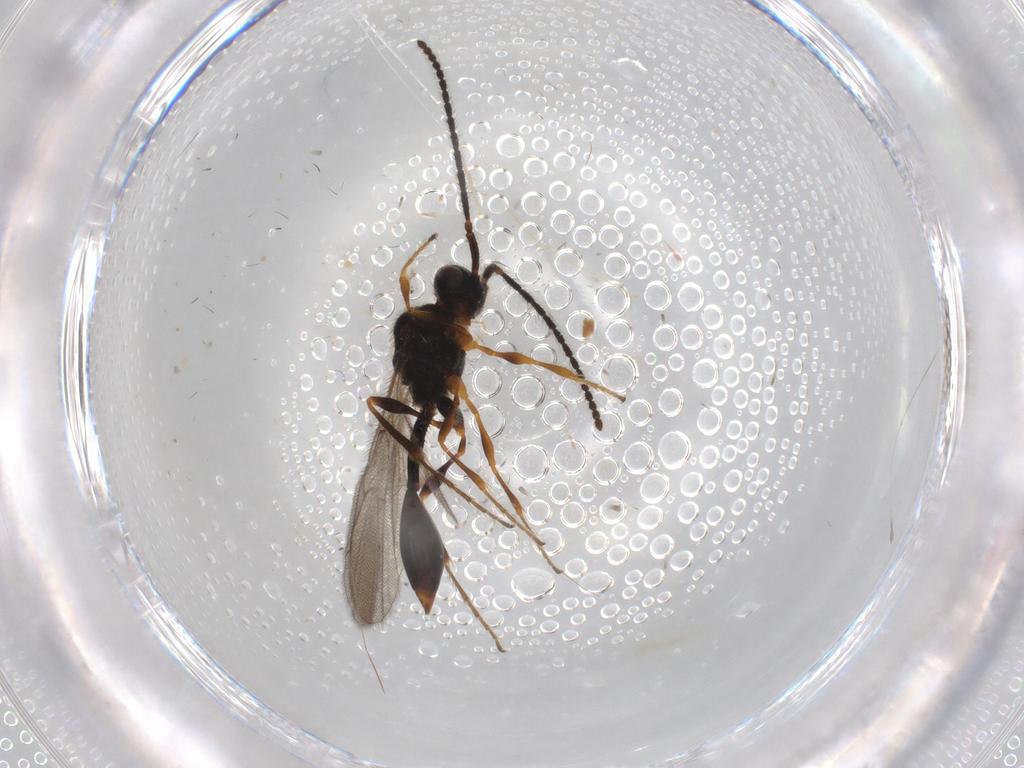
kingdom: Animalia
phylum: Arthropoda
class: Insecta
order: Hymenoptera
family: Diapriidae
